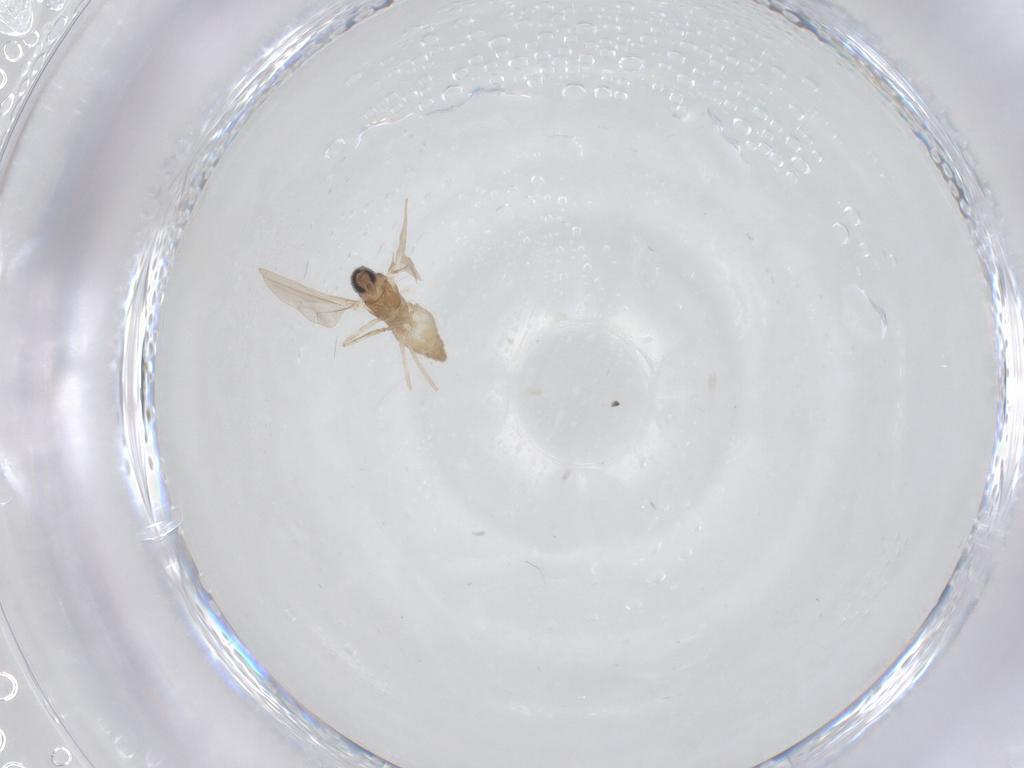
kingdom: Animalia
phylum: Arthropoda
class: Insecta
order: Diptera
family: Cecidomyiidae
